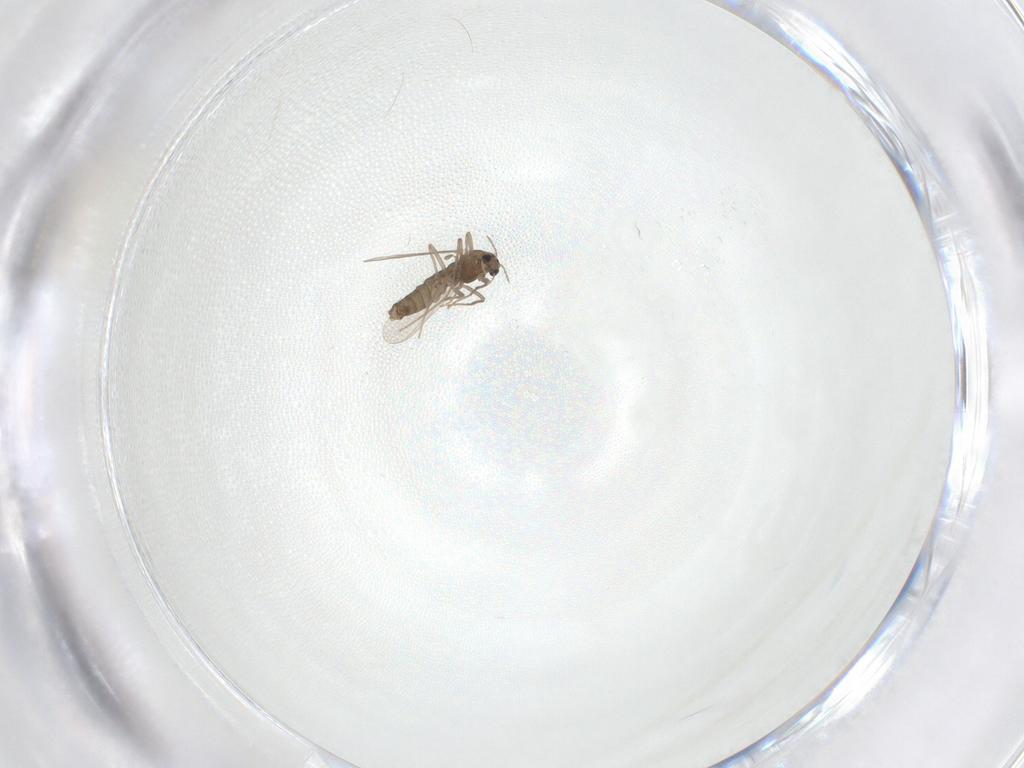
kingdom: Animalia
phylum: Arthropoda
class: Insecta
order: Diptera
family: Chironomidae
